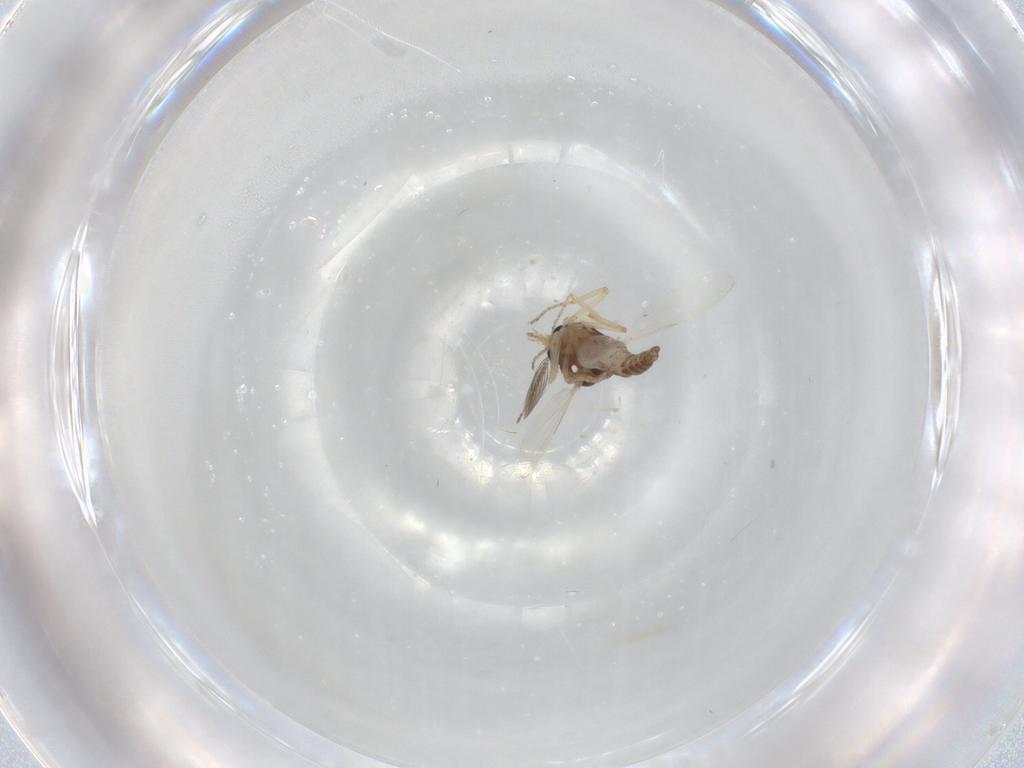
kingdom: Animalia
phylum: Arthropoda
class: Insecta
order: Diptera
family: Ceratopogonidae
